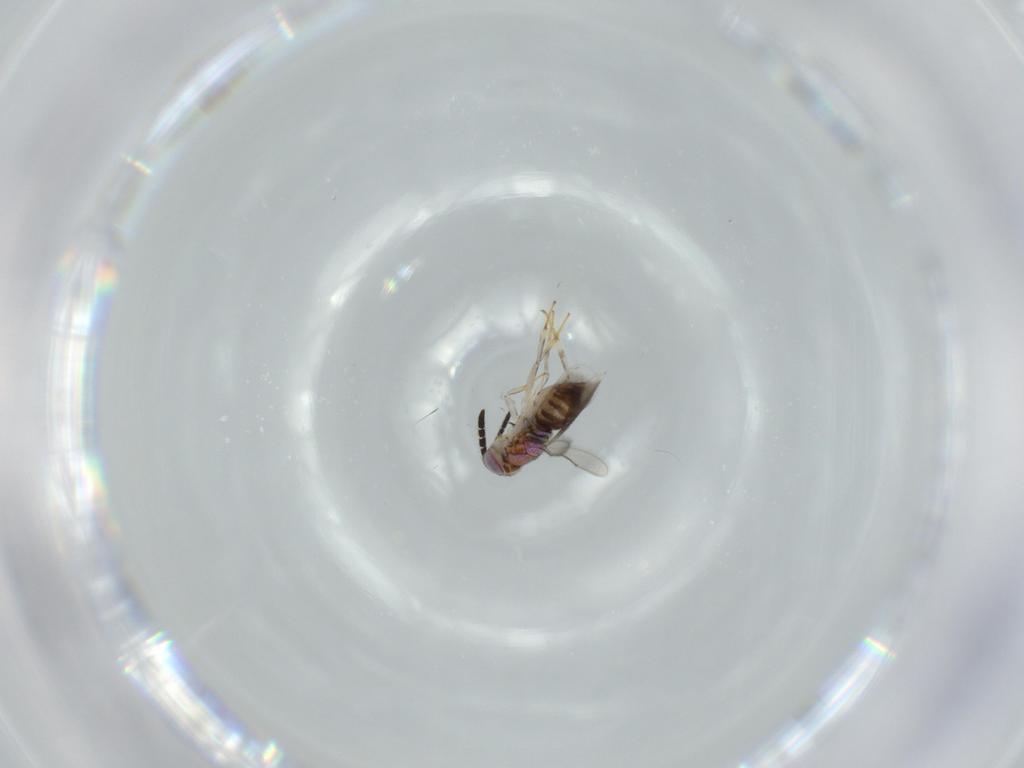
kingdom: Animalia
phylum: Arthropoda
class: Insecta
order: Hymenoptera
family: Aphelinidae
